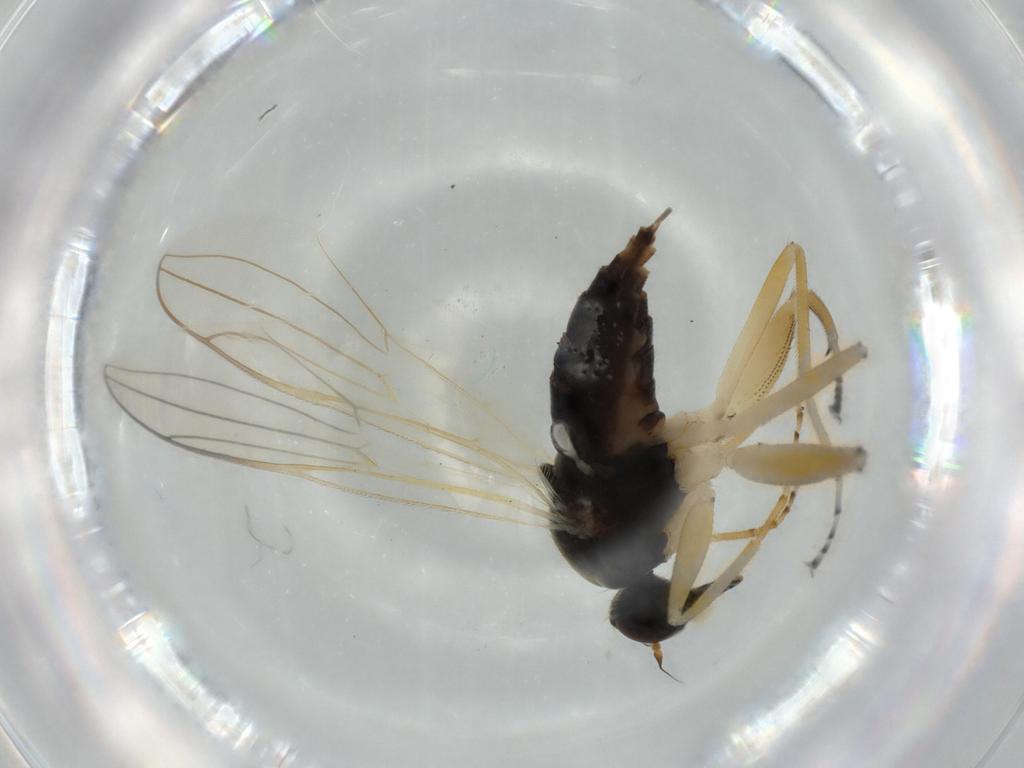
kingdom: Animalia
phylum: Arthropoda
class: Insecta
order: Diptera
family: Hybotidae
